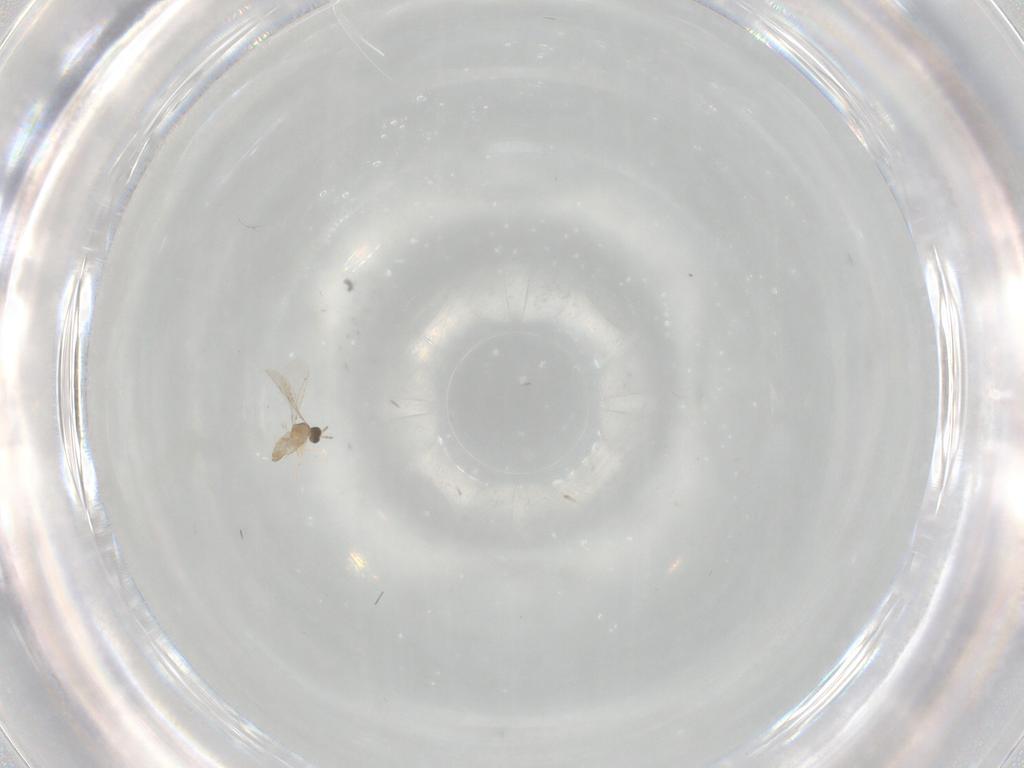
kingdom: Animalia
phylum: Arthropoda
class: Insecta
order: Diptera
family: Cecidomyiidae
